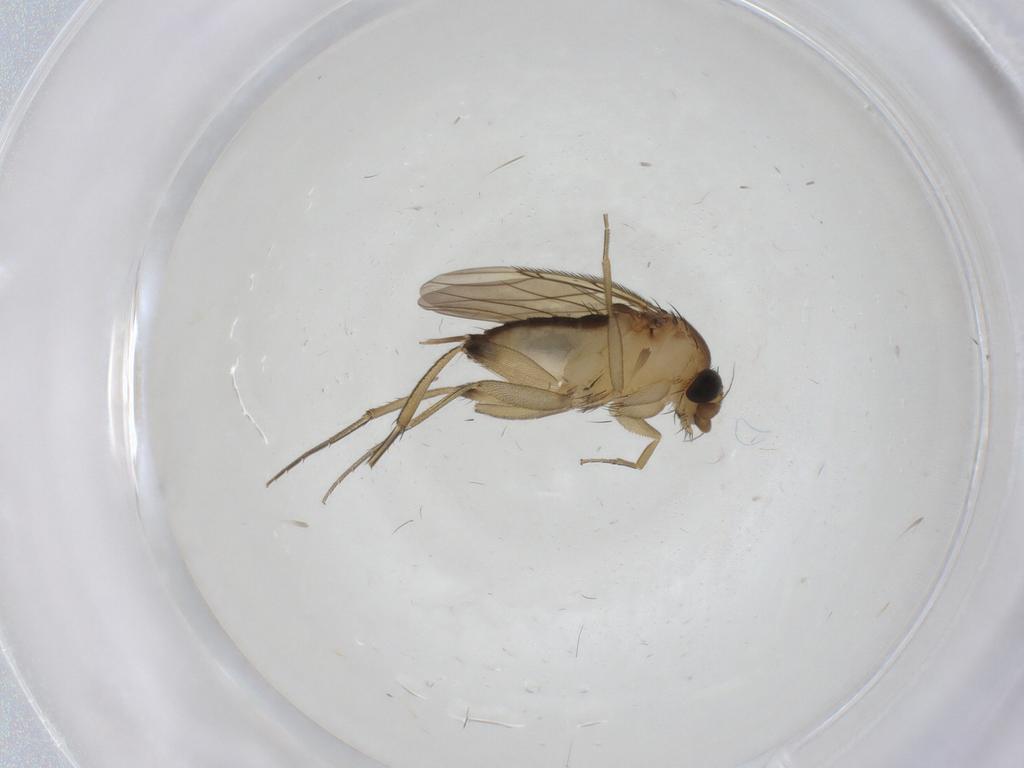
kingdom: Animalia
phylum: Arthropoda
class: Insecta
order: Diptera
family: Phoridae
